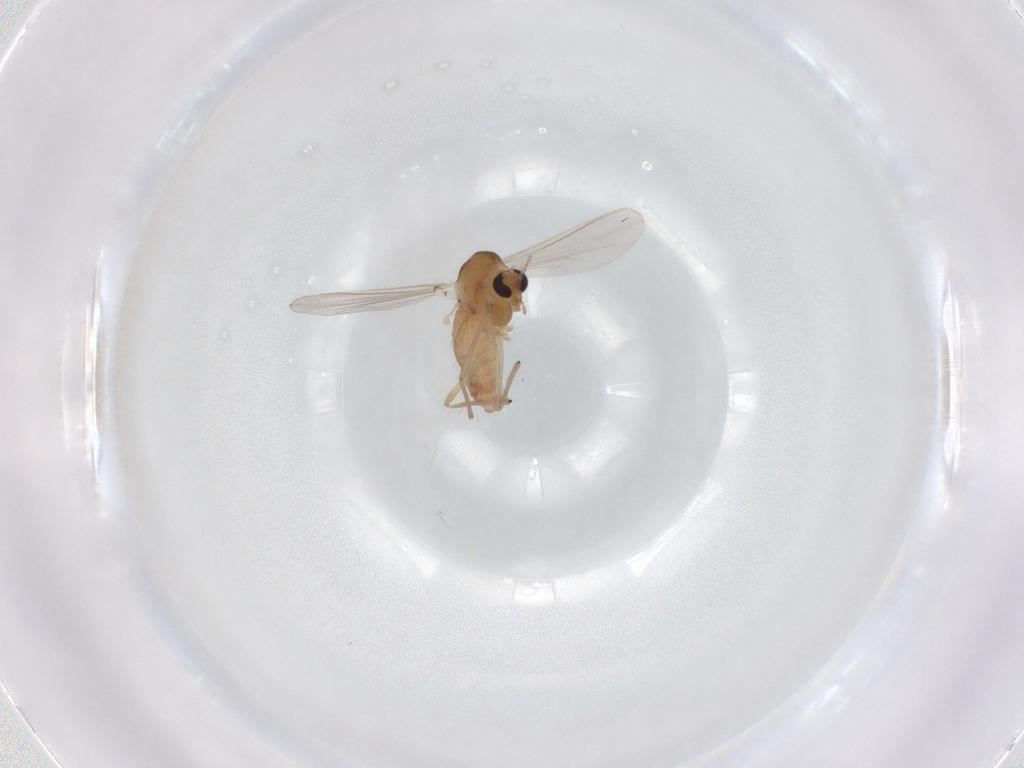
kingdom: Animalia
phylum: Arthropoda
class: Insecta
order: Diptera
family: Chironomidae
